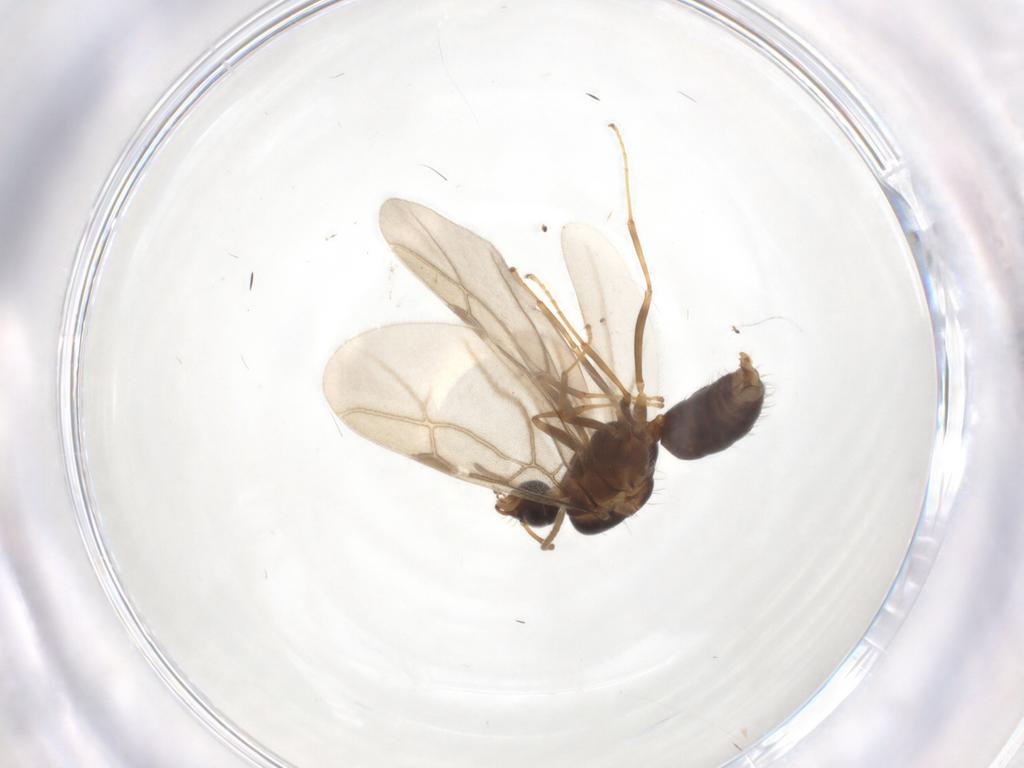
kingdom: Animalia
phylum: Arthropoda
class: Insecta
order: Hymenoptera
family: Formicidae
